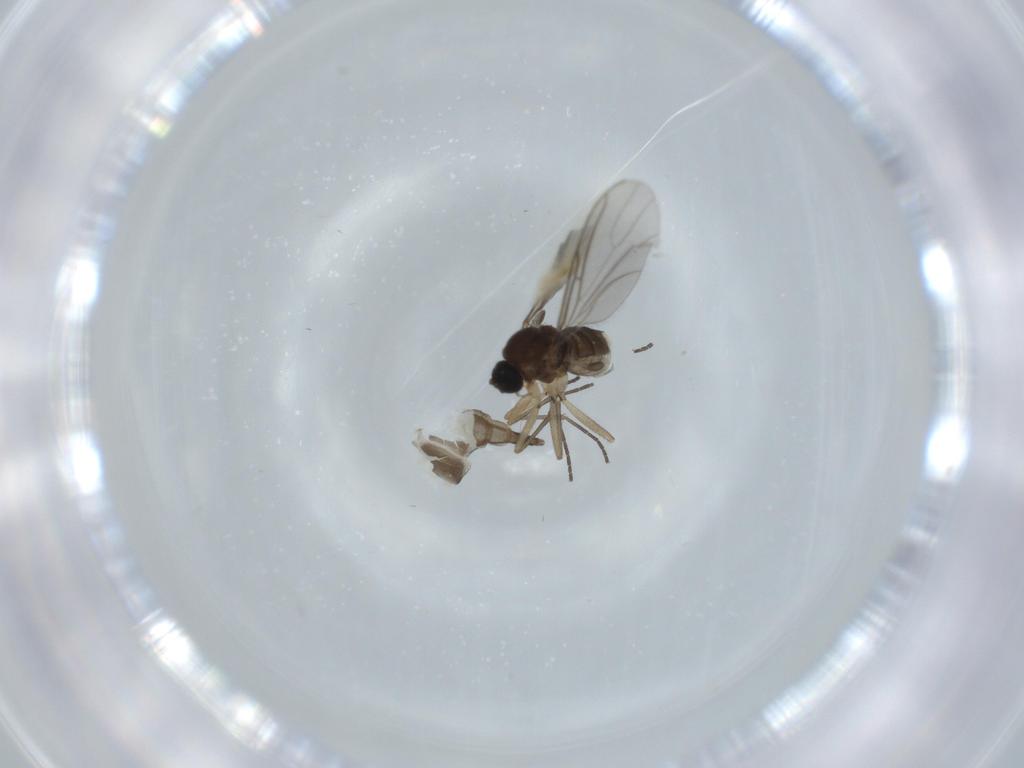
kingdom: Animalia
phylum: Arthropoda
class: Insecta
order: Diptera
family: Sciaridae
